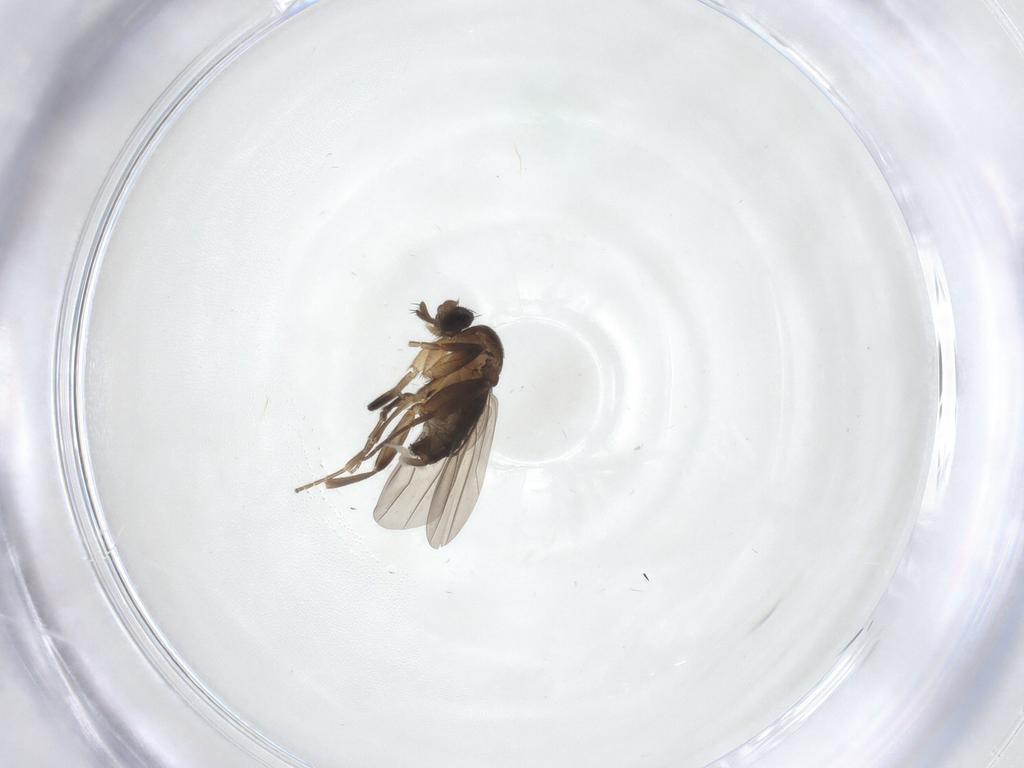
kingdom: Animalia
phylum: Arthropoda
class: Insecta
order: Diptera
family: Phoridae
